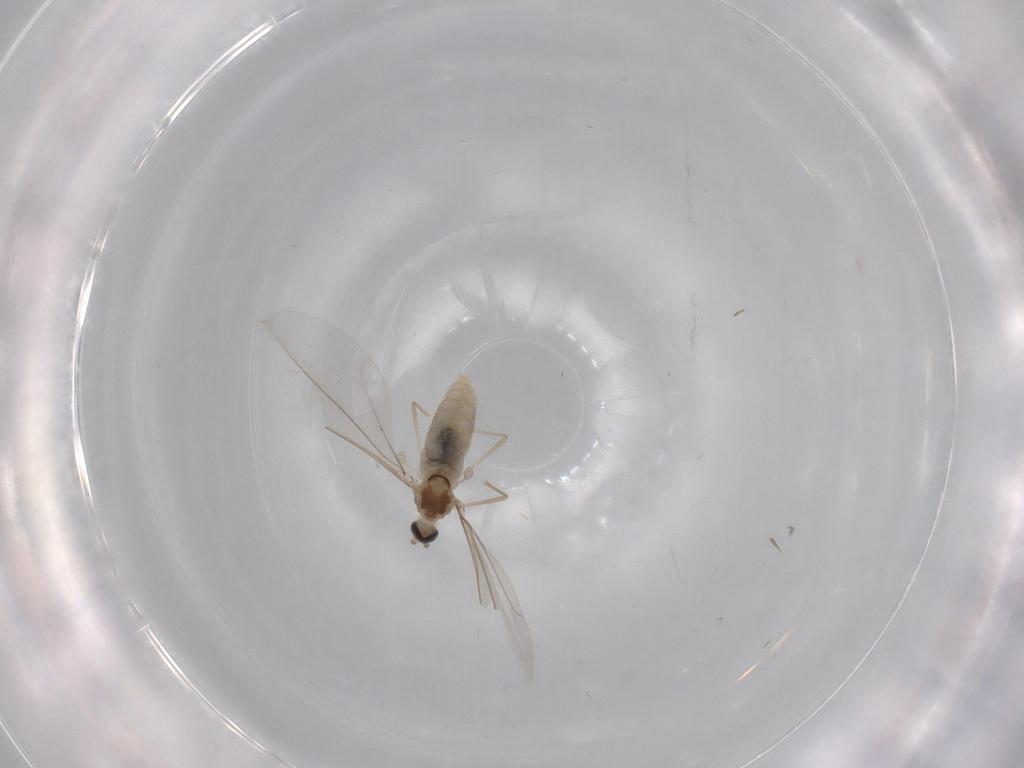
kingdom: Animalia
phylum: Arthropoda
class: Insecta
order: Diptera
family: Cecidomyiidae
